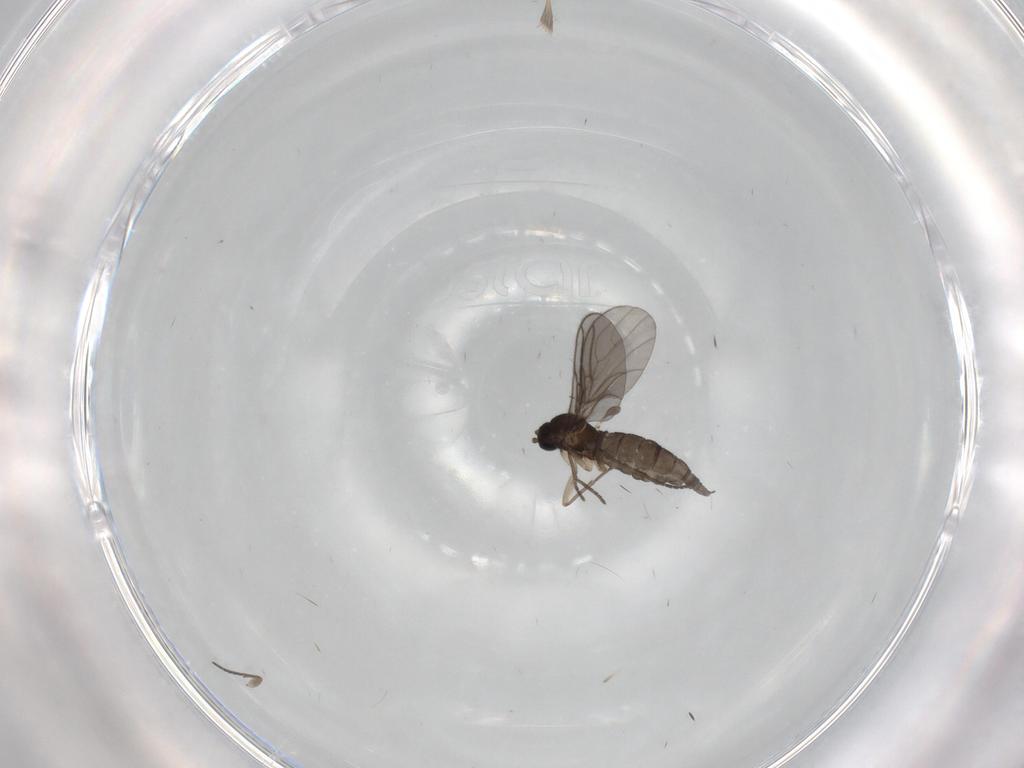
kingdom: Animalia
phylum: Arthropoda
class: Insecta
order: Diptera
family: Sciaridae
